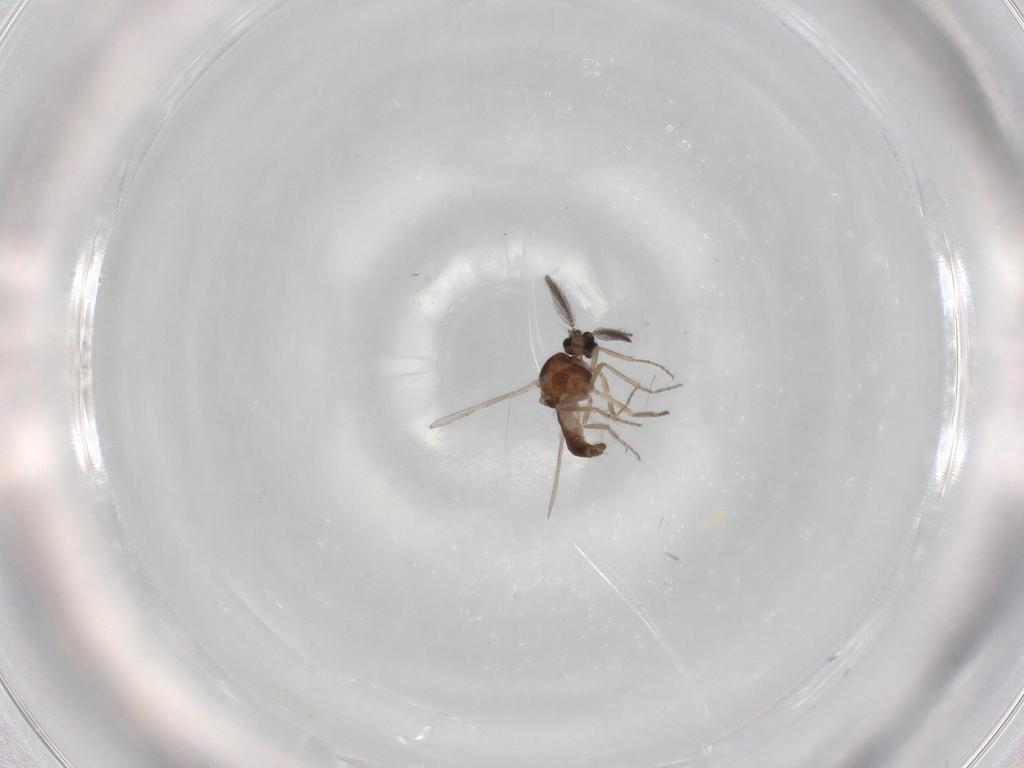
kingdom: Animalia
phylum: Arthropoda
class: Insecta
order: Diptera
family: Ceratopogonidae
